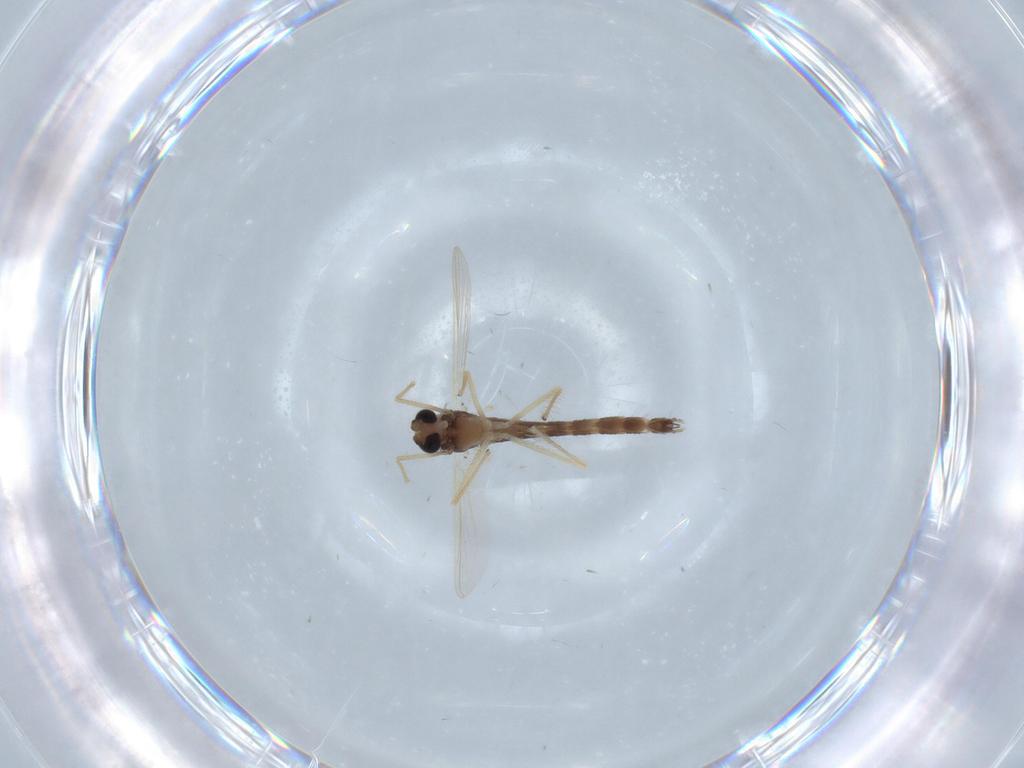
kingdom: Animalia
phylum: Arthropoda
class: Insecta
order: Diptera
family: Chironomidae
